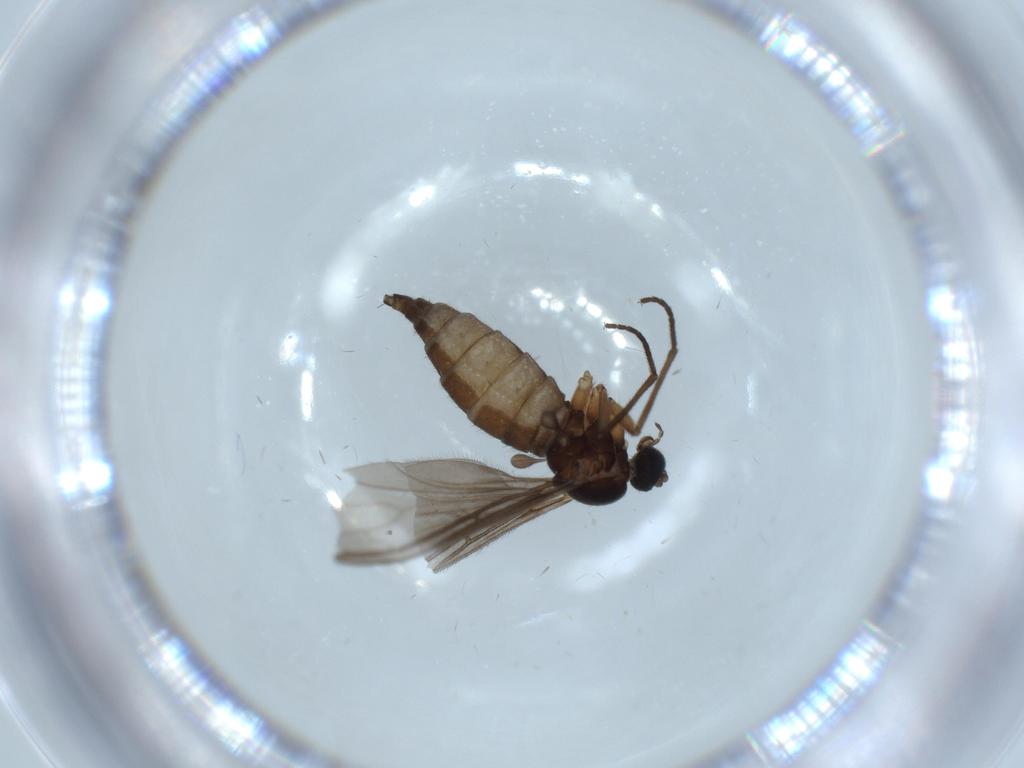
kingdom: Animalia
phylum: Arthropoda
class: Insecta
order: Diptera
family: Sciaridae
